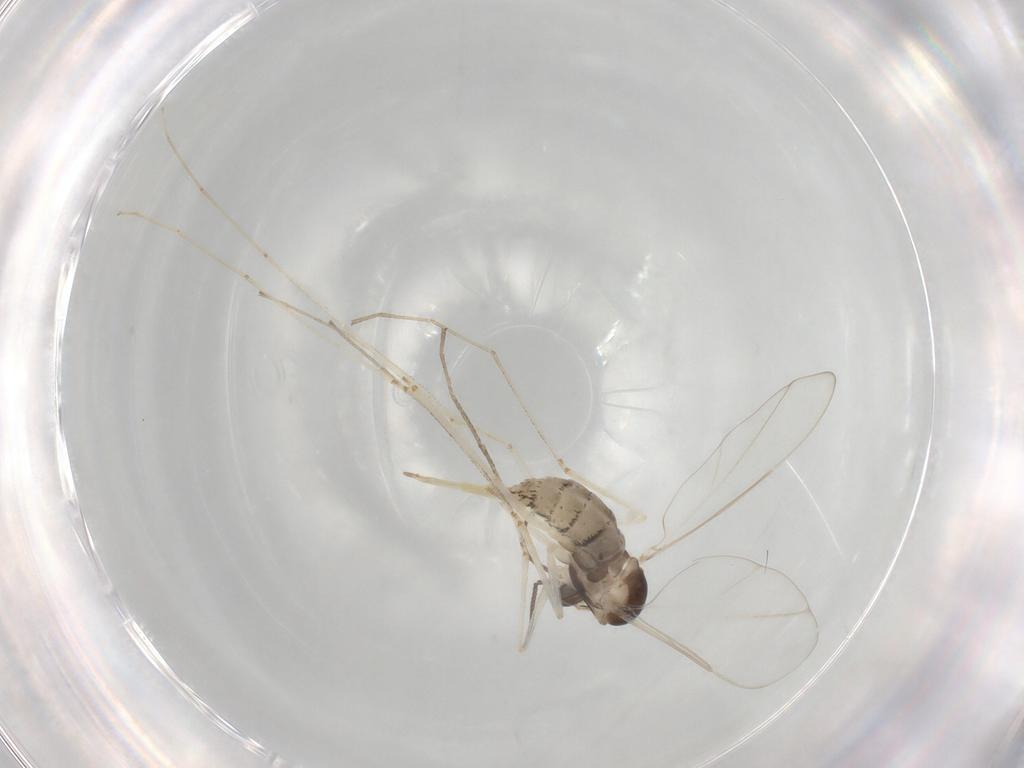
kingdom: Animalia
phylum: Arthropoda
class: Insecta
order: Diptera
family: Cecidomyiidae
